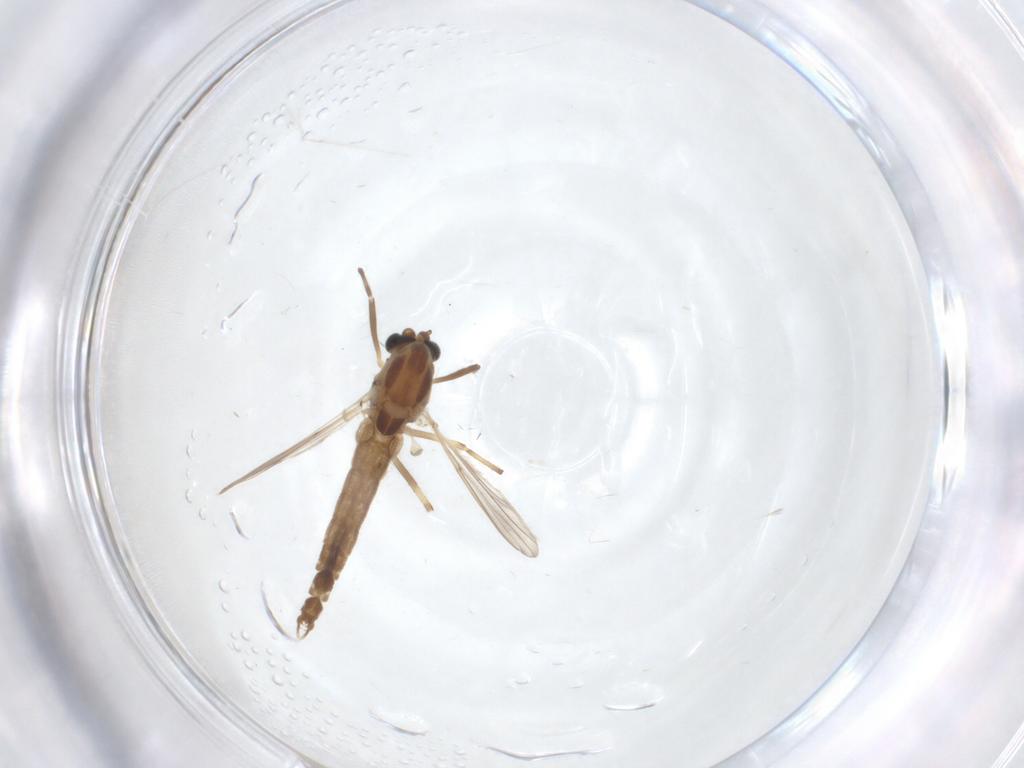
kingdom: Animalia
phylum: Arthropoda
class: Insecta
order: Diptera
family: Chironomidae
